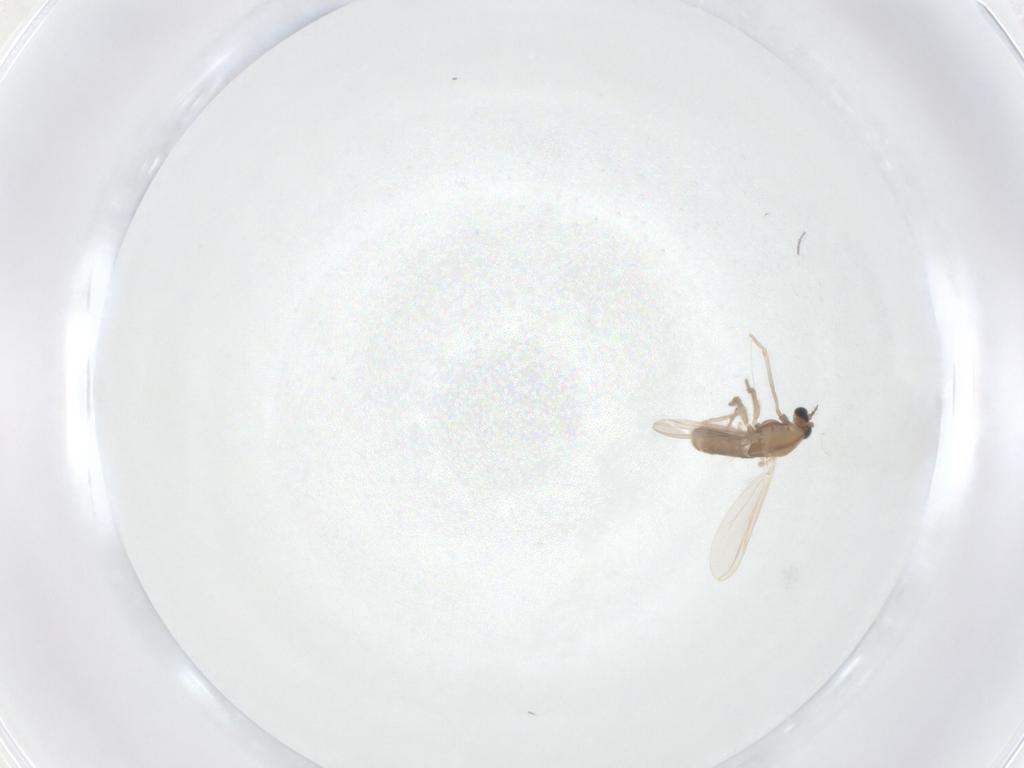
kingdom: Animalia
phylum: Arthropoda
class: Insecta
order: Diptera
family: Chironomidae
